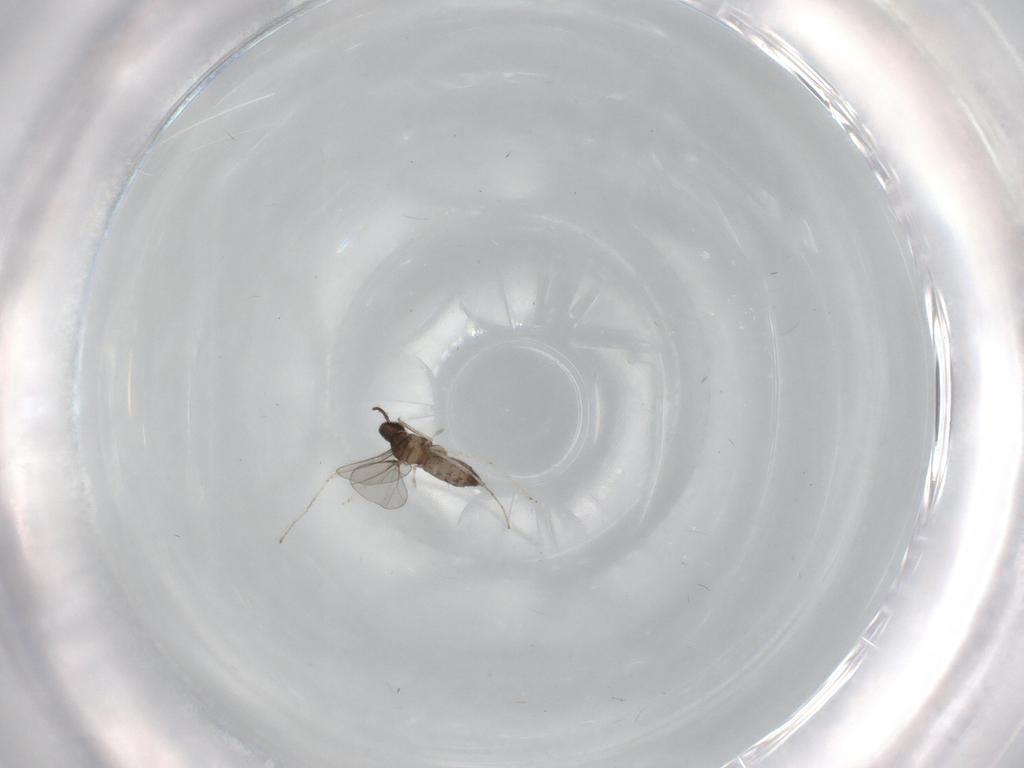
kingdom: Animalia
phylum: Arthropoda
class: Insecta
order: Diptera
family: Cecidomyiidae
